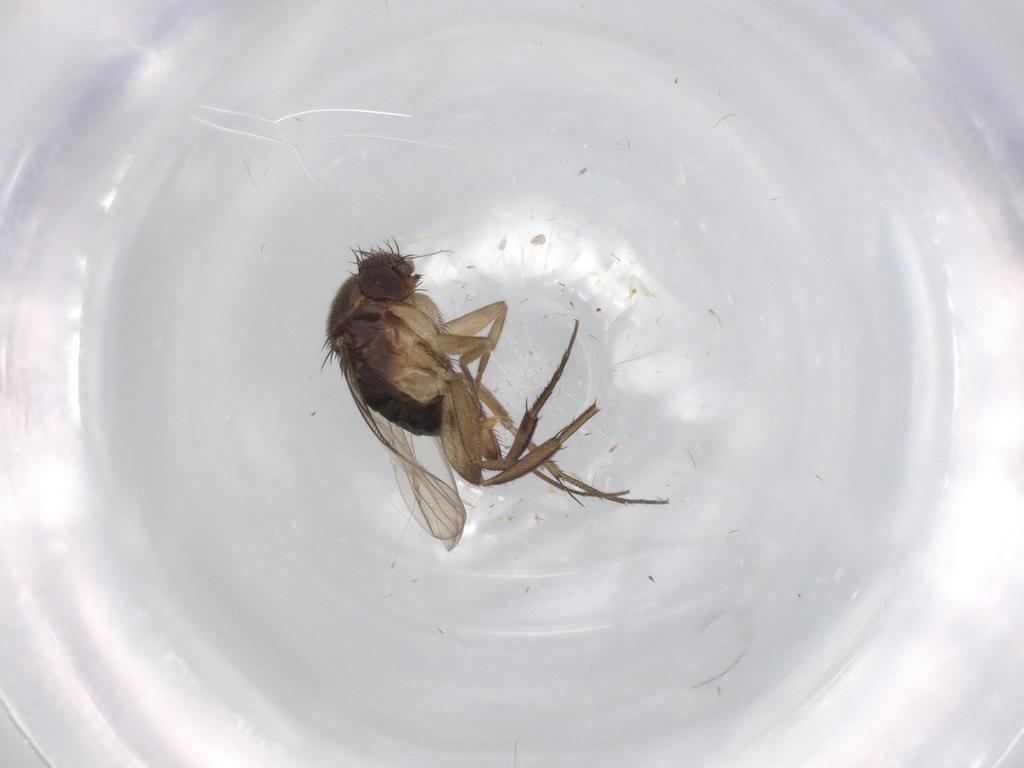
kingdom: Animalia
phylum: Arthropoda
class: Insecta
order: Diptera
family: Phoridae
